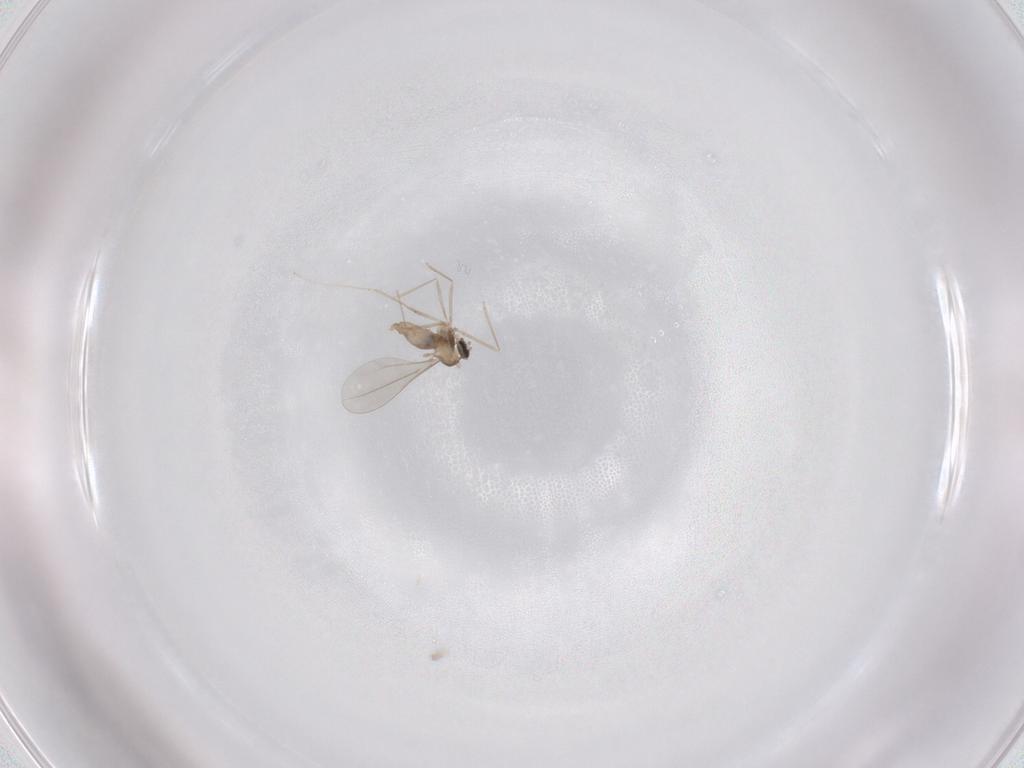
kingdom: Animalia
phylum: Arthropoda
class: Insecta
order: Diptera
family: Cecidomyiidae
